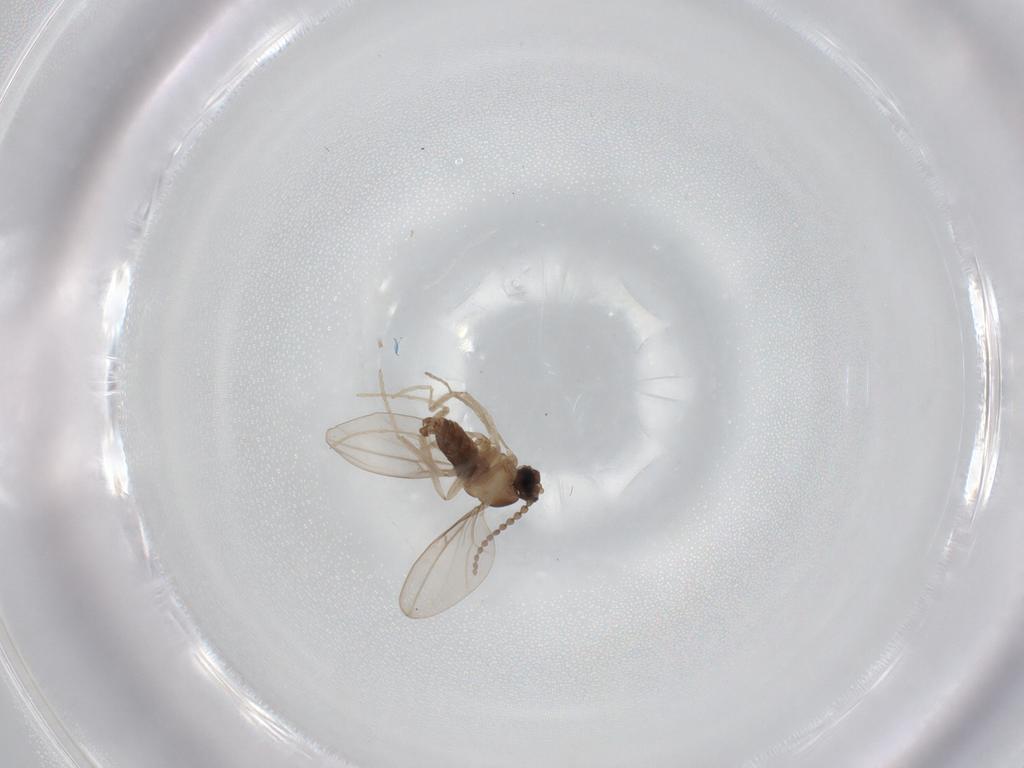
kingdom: Animalia
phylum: Arthropoda
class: Insecta
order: Diptera
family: Cecidomyiidae
